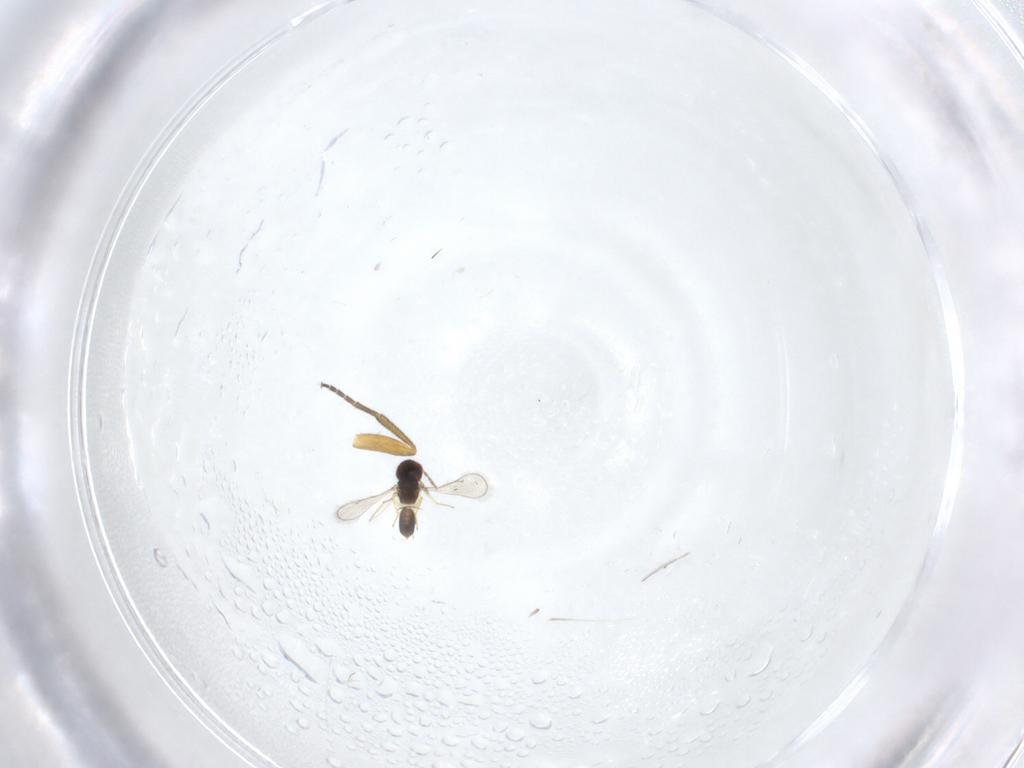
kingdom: Animalia
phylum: Arthropoda
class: Insecta
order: Hymenoptera
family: Eulophidae
